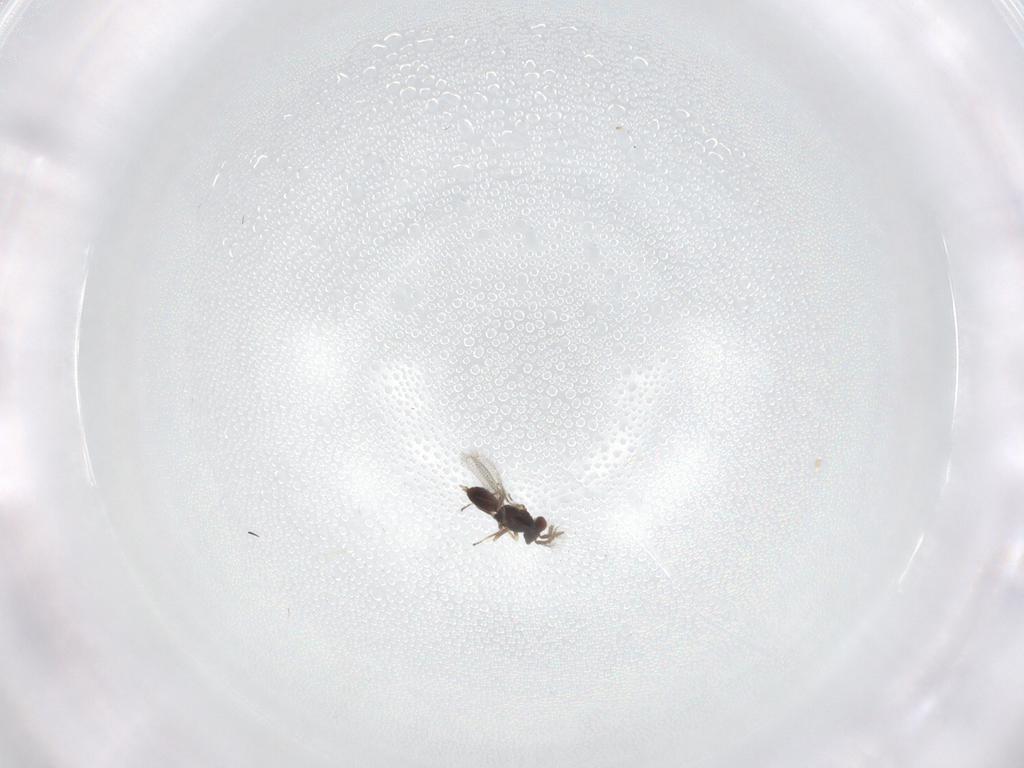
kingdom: Animalia
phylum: Arthropoda
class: Insecta
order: Hymenoptera
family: Eulophidae
